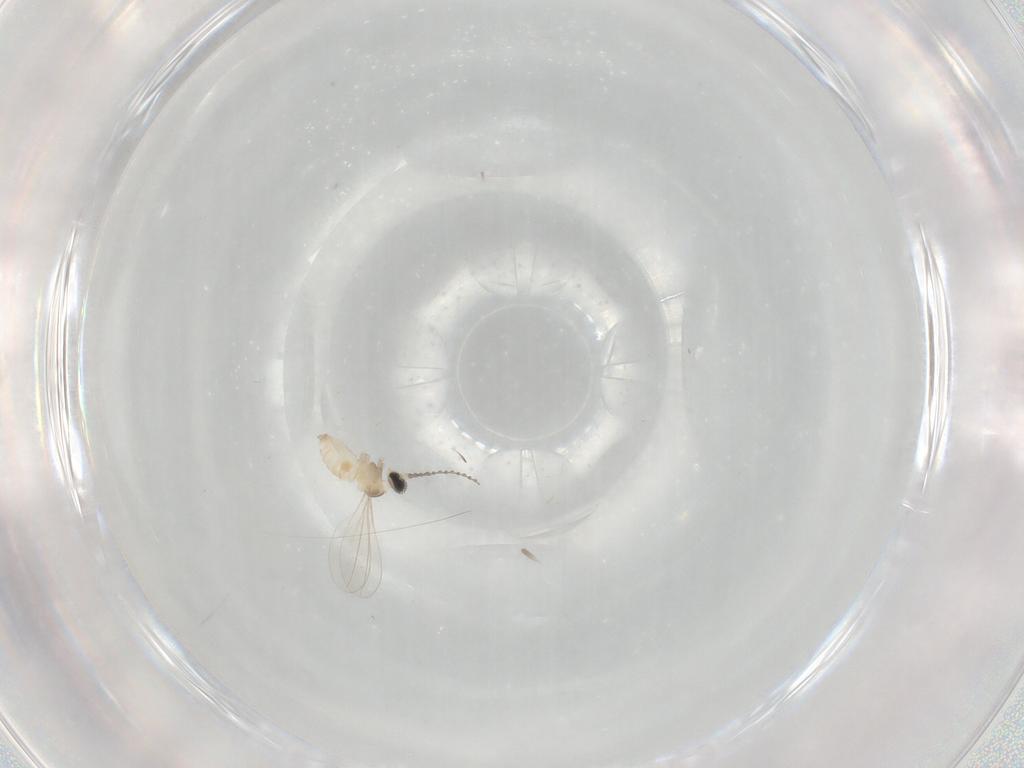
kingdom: Animalia
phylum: Arthropoda
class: Insecta
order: Diptera
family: Cecidomyiidae
